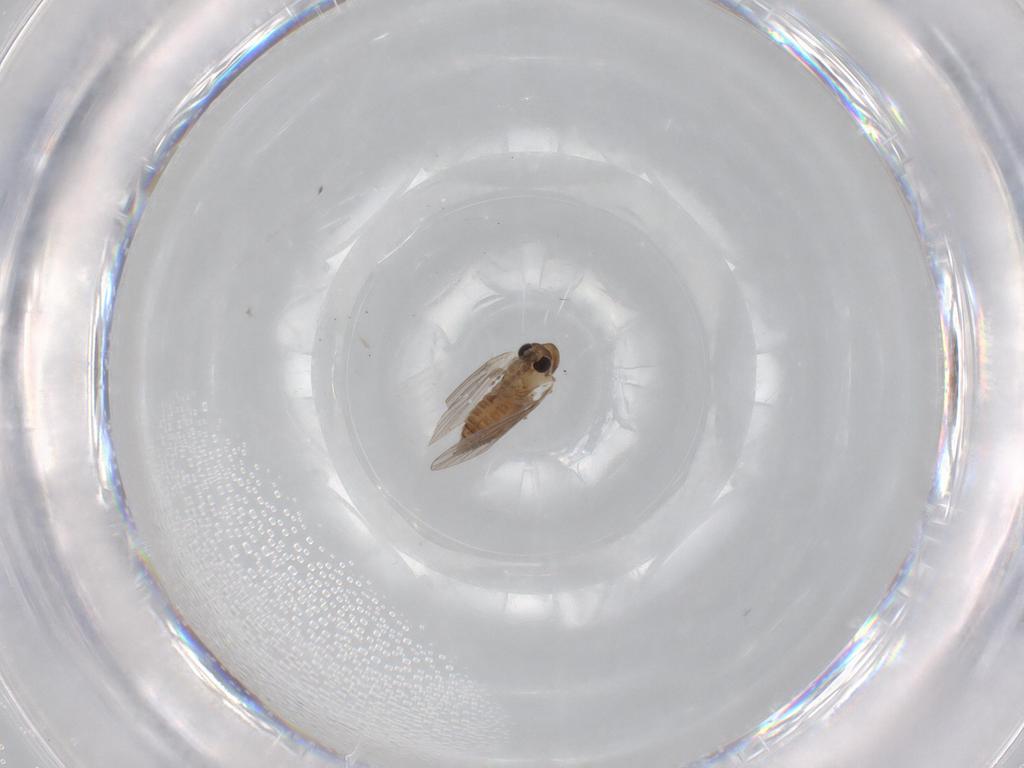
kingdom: Animalia
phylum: Arthropoda
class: Insecta
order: Diptera
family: Psychodidae
